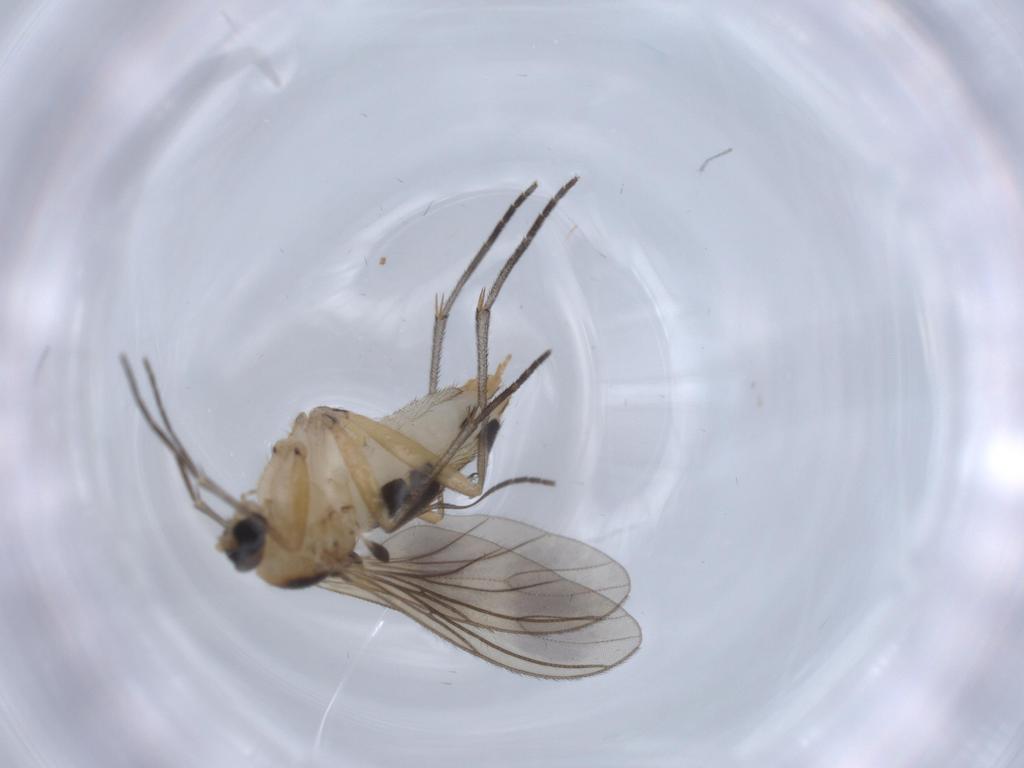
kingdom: Animalia
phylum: Arthropoda
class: Insecta
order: Diptera
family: Sciaridae
